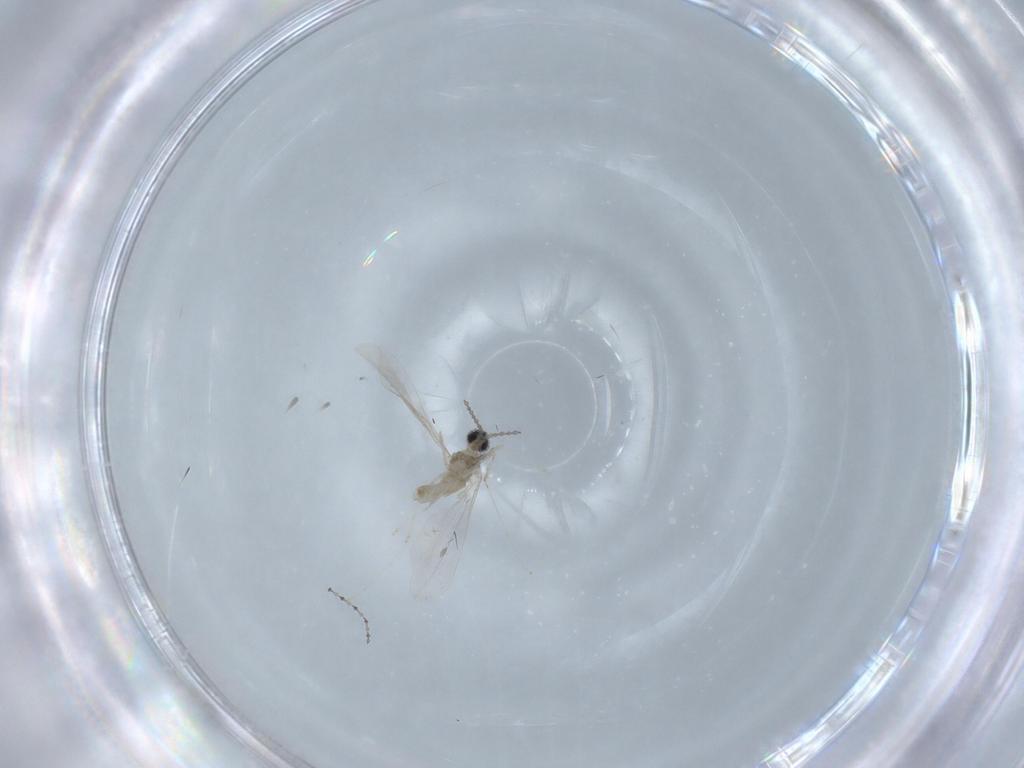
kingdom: Animalia
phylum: Arthropoda
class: Insecta
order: Diptera
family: Cecidomyiidae
